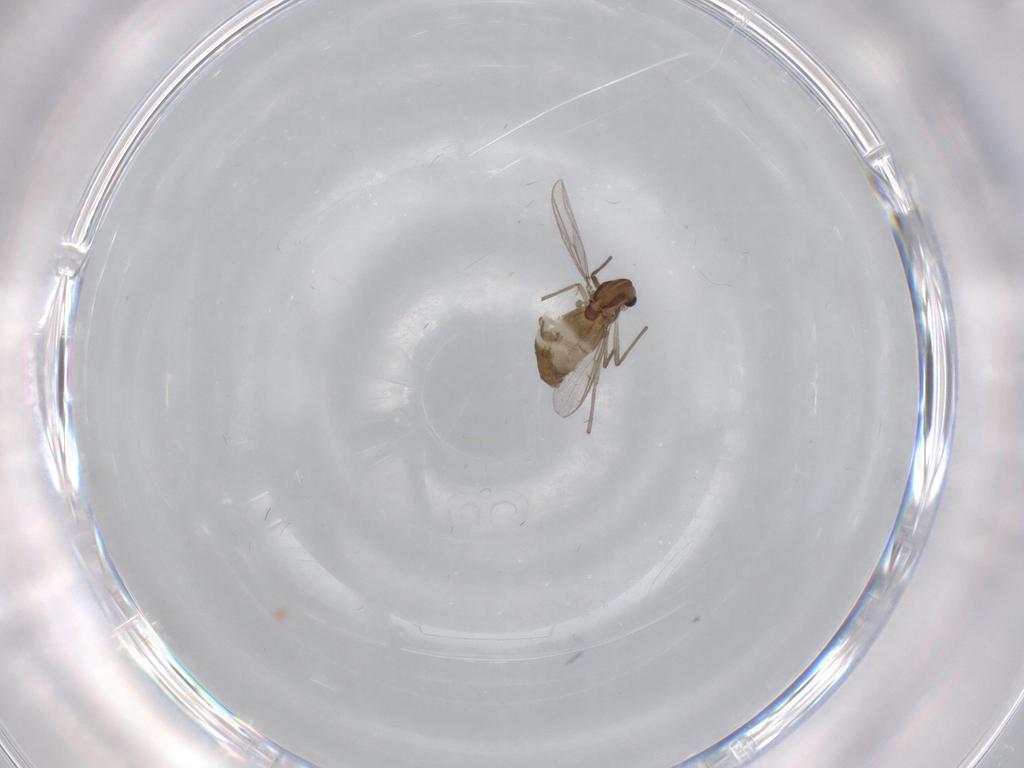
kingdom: Animalia
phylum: Arthropoda
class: Insecta
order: Diptera
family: Chironomidae
